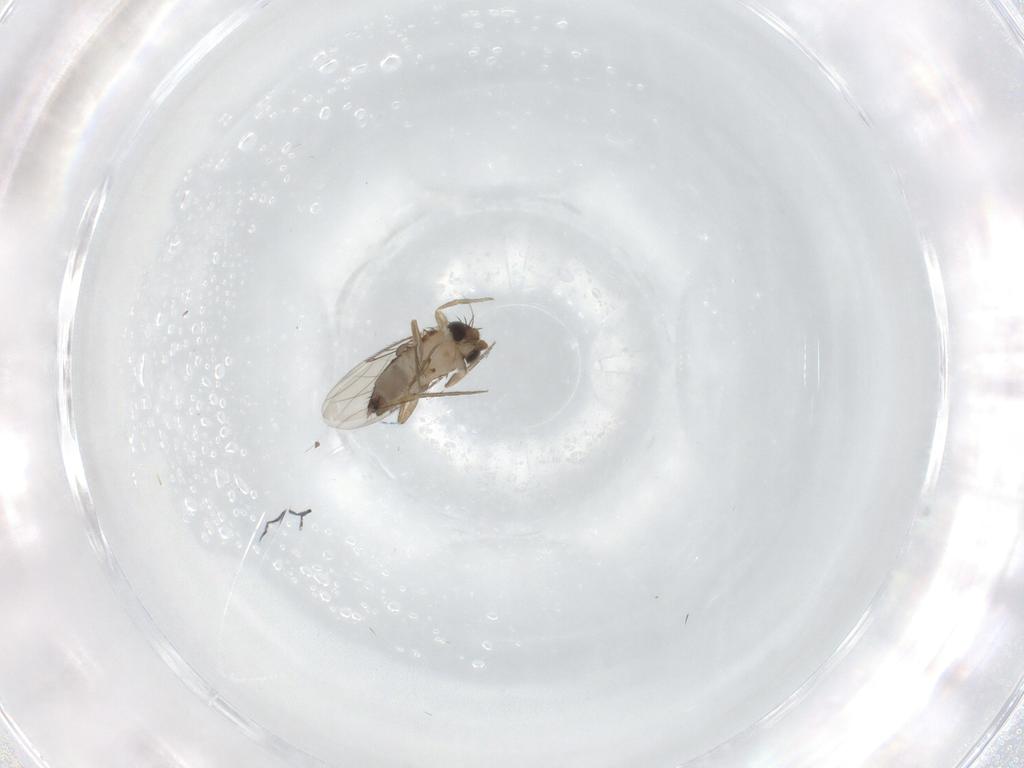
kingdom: Animalia
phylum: Arthropoda
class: Insecta
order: Diptera
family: Phoridae
